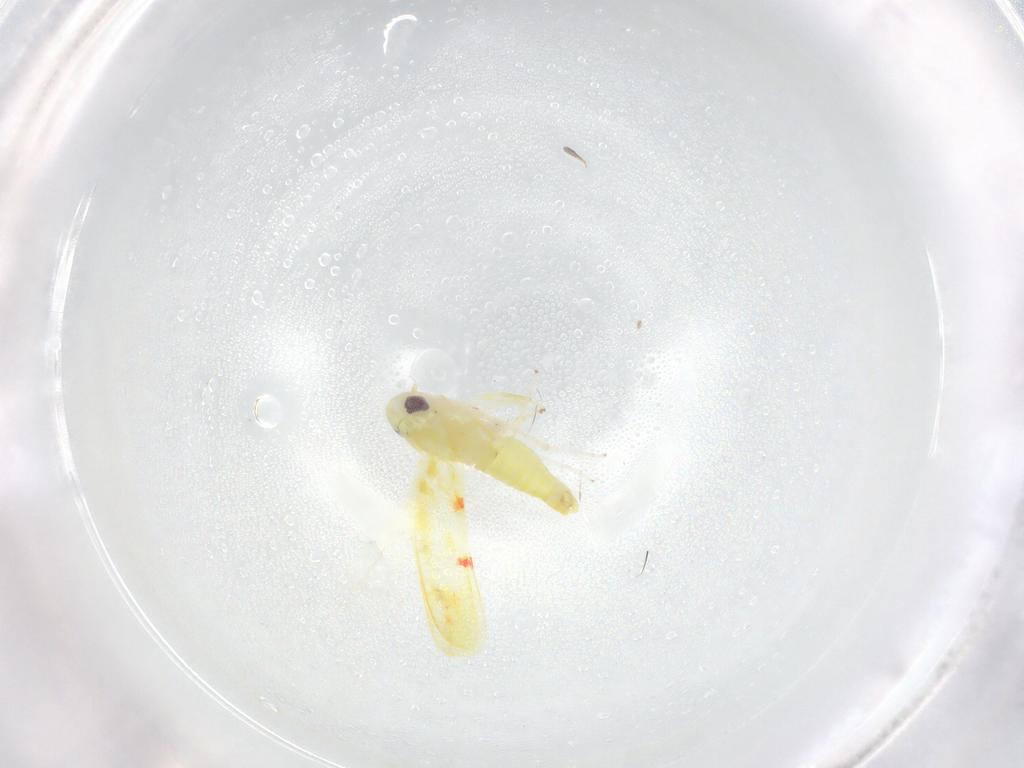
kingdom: Animalia
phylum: Arthropoda
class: Insecta
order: Hemiptera
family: Cicadellidae
